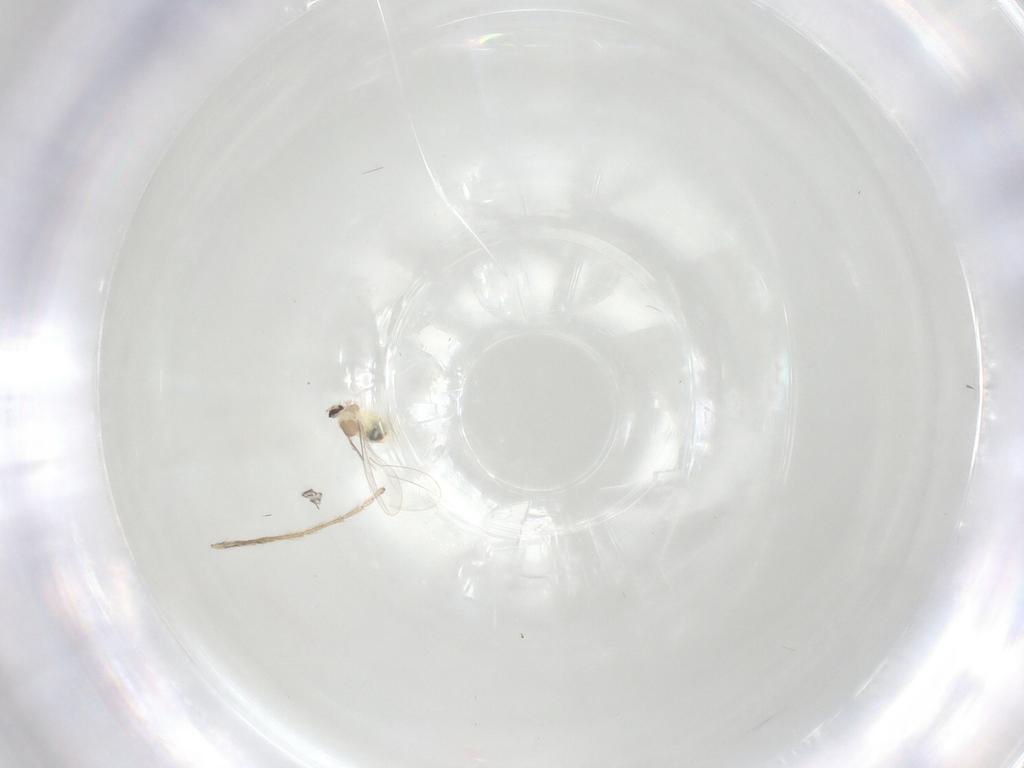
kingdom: Animalia
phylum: Arthropoda
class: Insecta
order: Diptera
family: Cecidomyiidae
